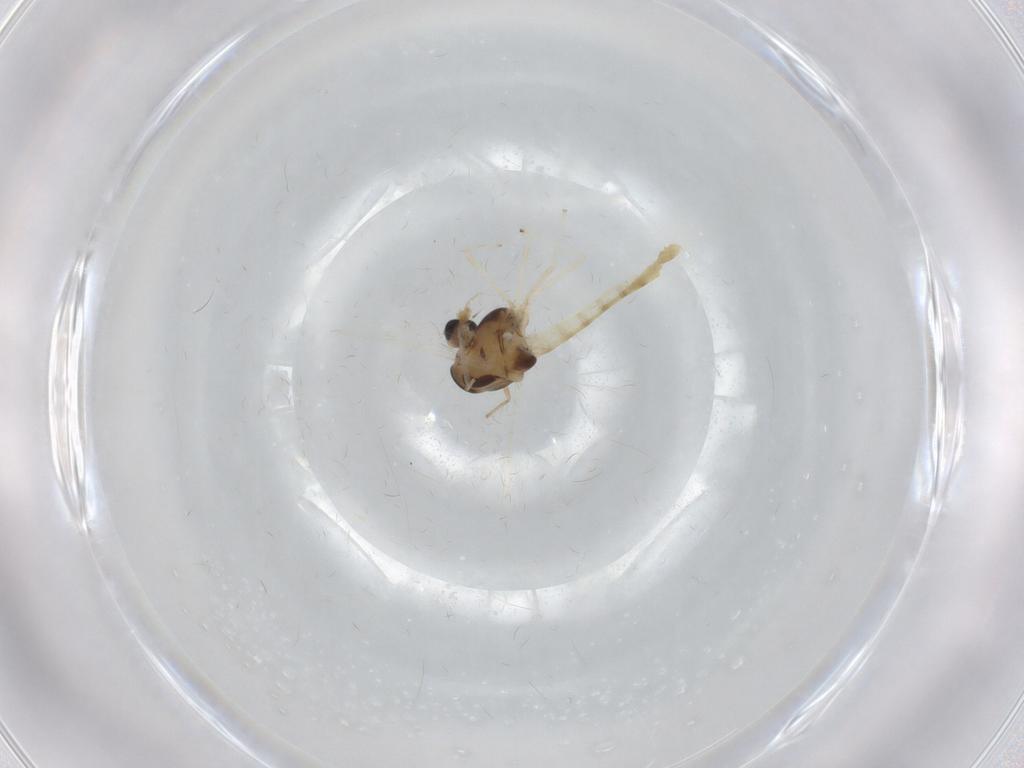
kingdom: Animalia
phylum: Arthropoda
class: Insecta
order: Diptera
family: Chironomidae
